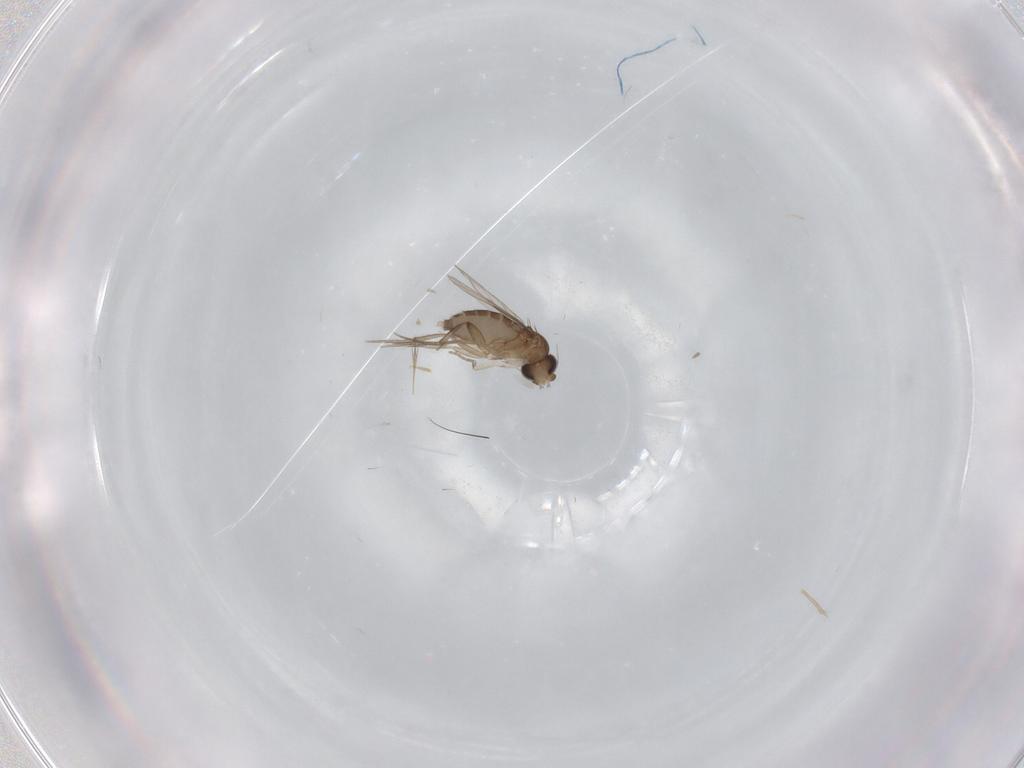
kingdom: Animalia
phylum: Arthropoda
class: Insecta
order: Diptera
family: Phoridae
